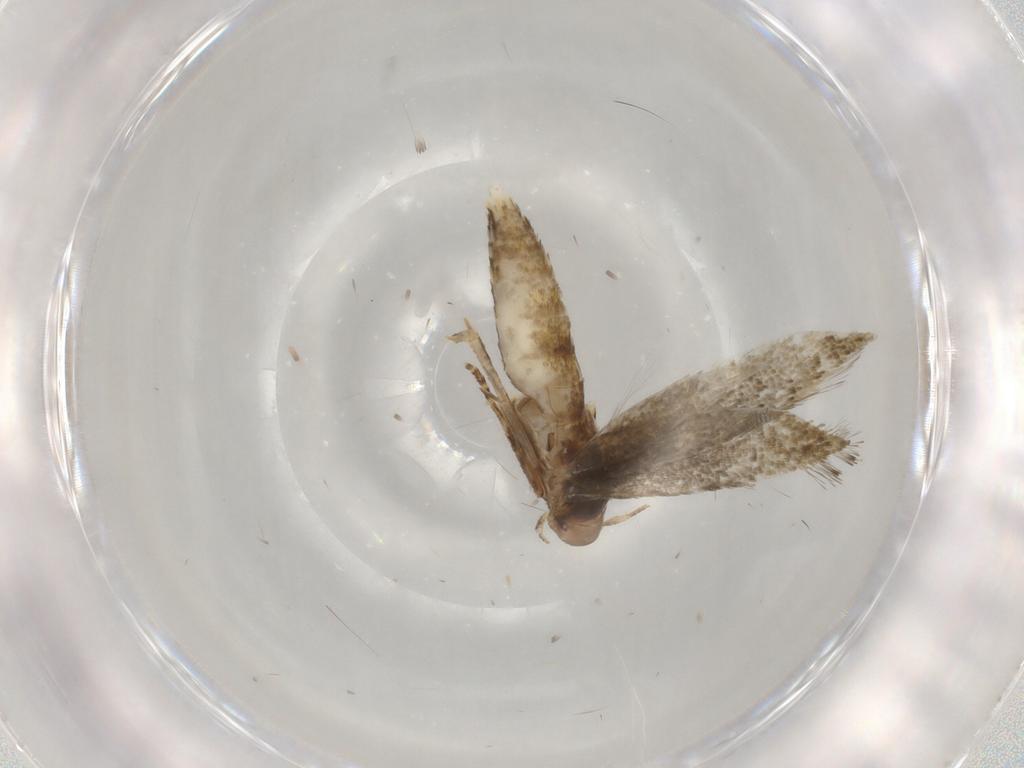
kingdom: Animalia
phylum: Arthropoda
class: Insecta
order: Lepidoptera
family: Momphidae
